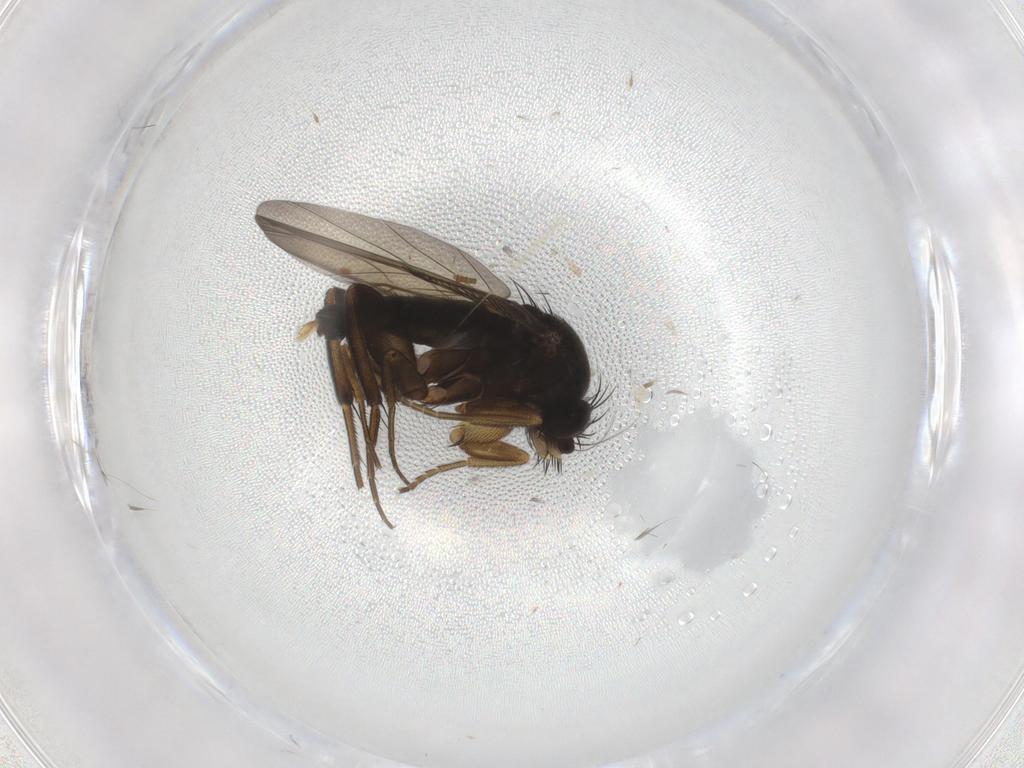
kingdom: Animalia
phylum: Arthropoda
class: Insecta
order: Diptera
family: Phoridae
